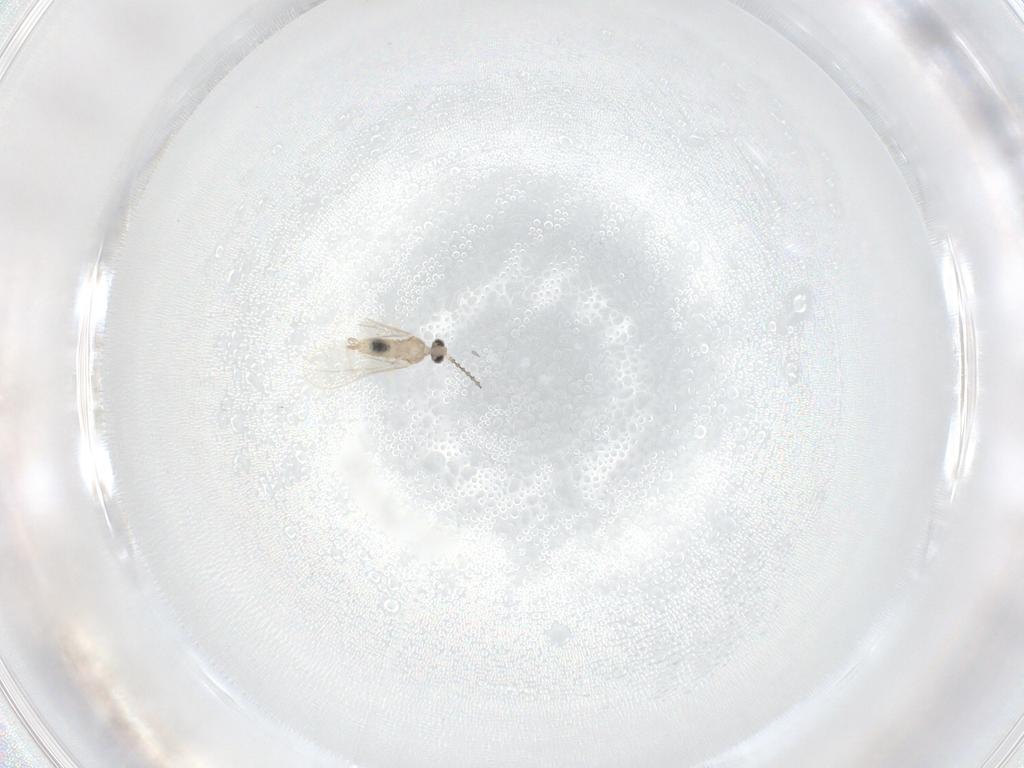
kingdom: Animalia
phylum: Arthropoda
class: Insecta
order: Diptera
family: Cecidomyiidae
